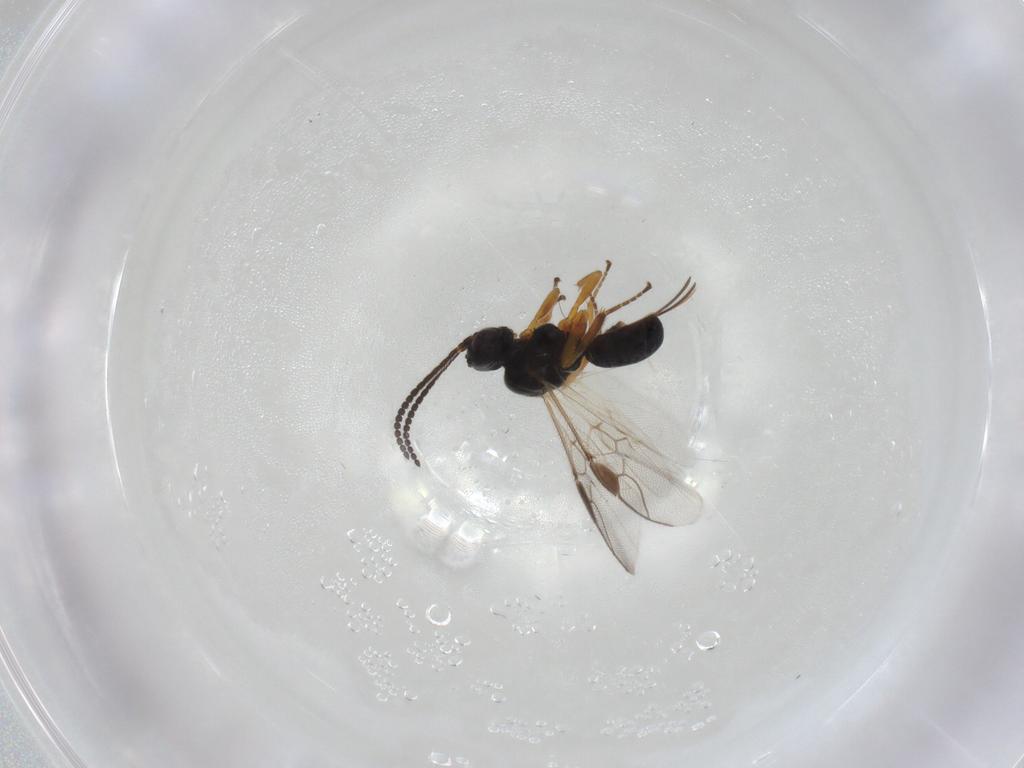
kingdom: Animalia
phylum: Arthropoda
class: Insecta
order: Hymenoptera
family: Braconidae
